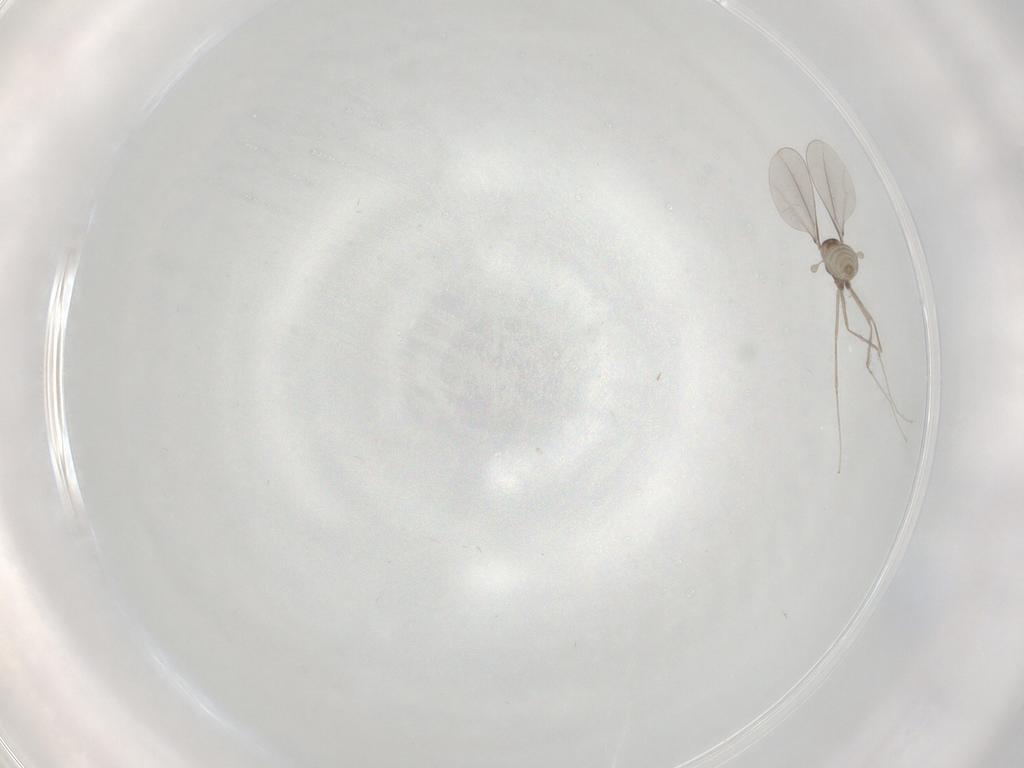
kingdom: Animalia
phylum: Arthropoda
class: Insecta
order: Diptera
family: Cecidomyiidae
